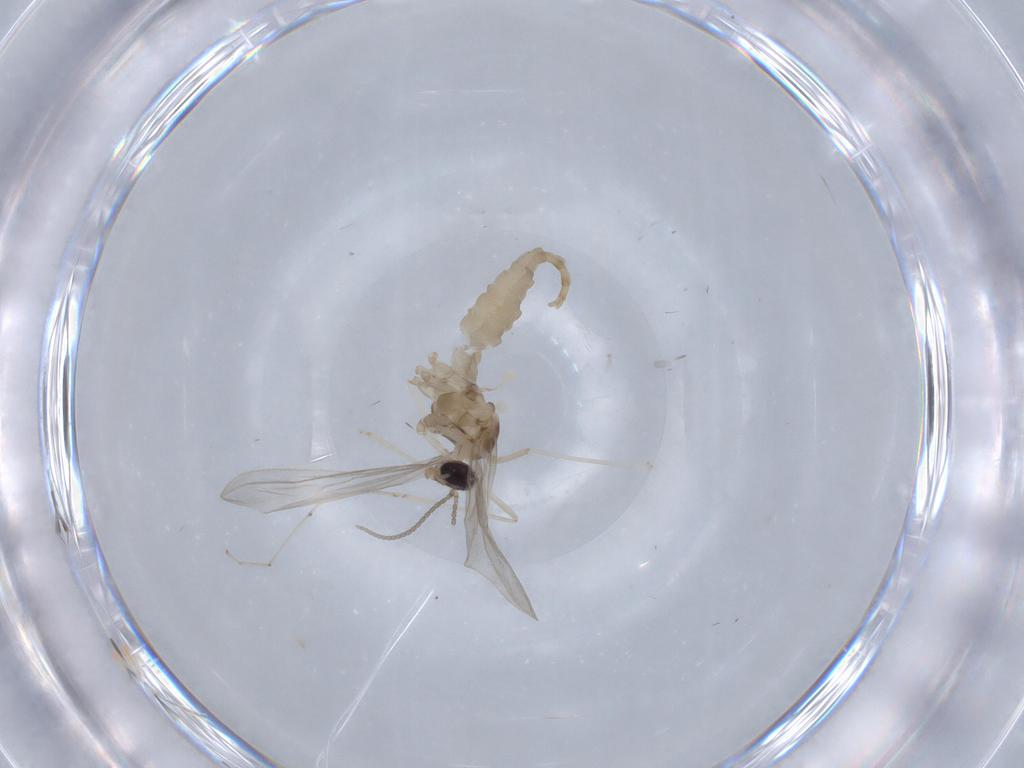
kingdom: Animalia
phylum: Arthropoda
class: Insecta
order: Diptera
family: Cecidomyiidae
